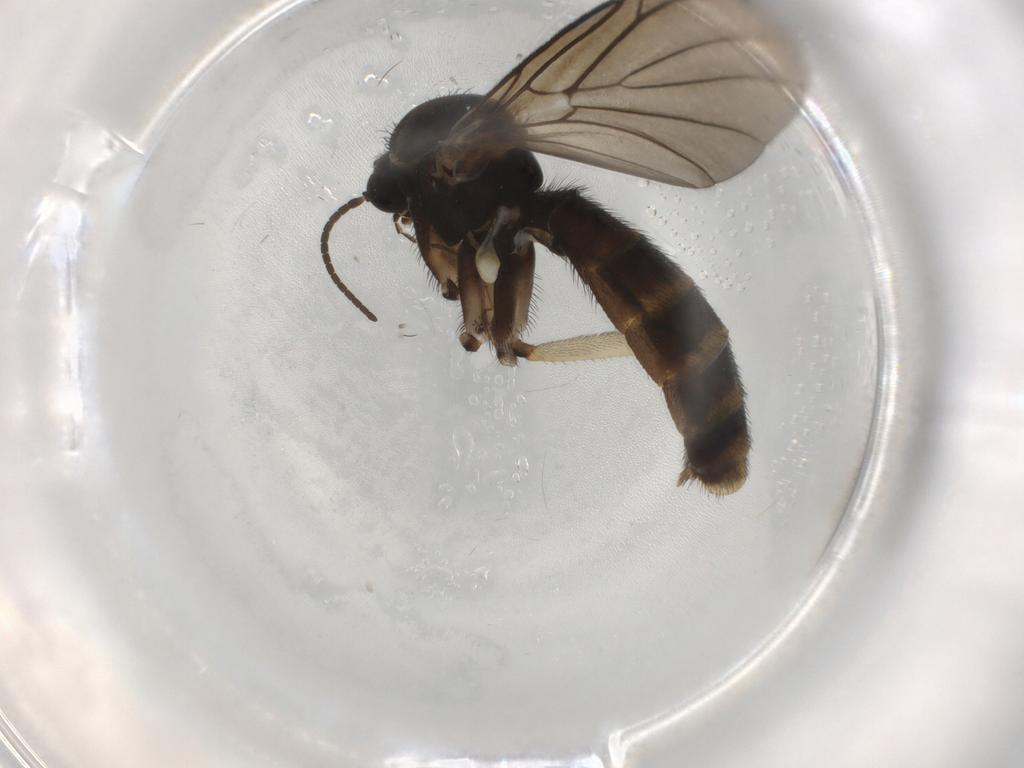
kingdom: Animalia
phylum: Arthropoda
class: Insecta
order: Diptera
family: Keroplatidae
